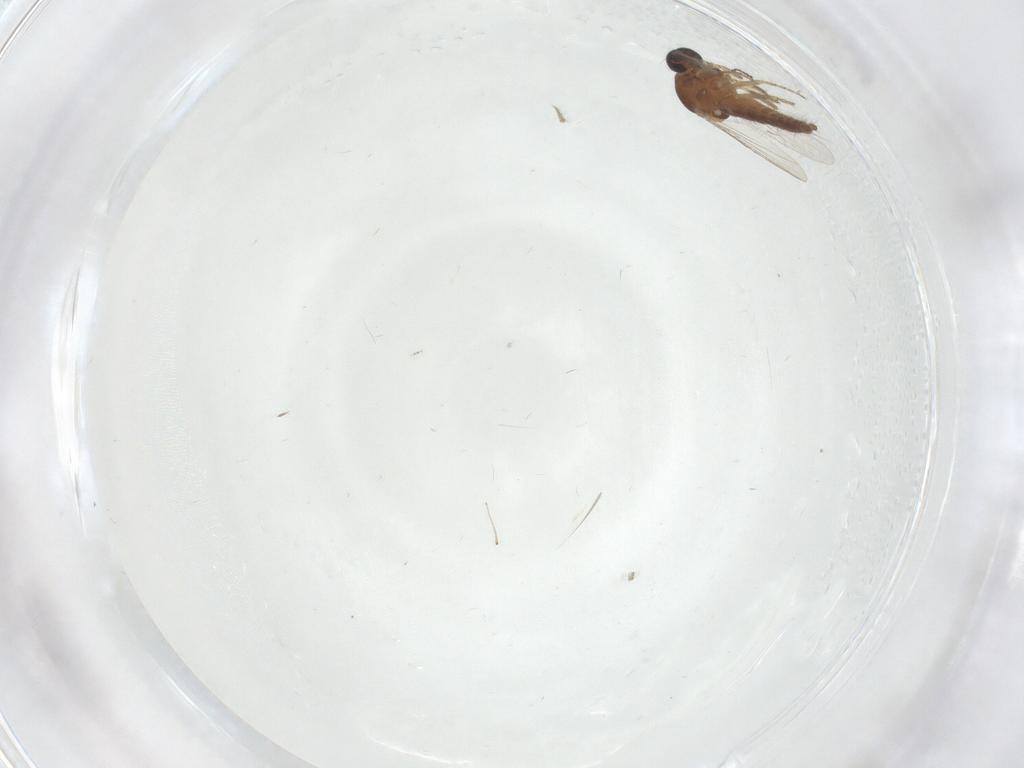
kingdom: Animalia
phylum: Arthropoda
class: Insecta
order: Diptera
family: Ceratopogonidae
